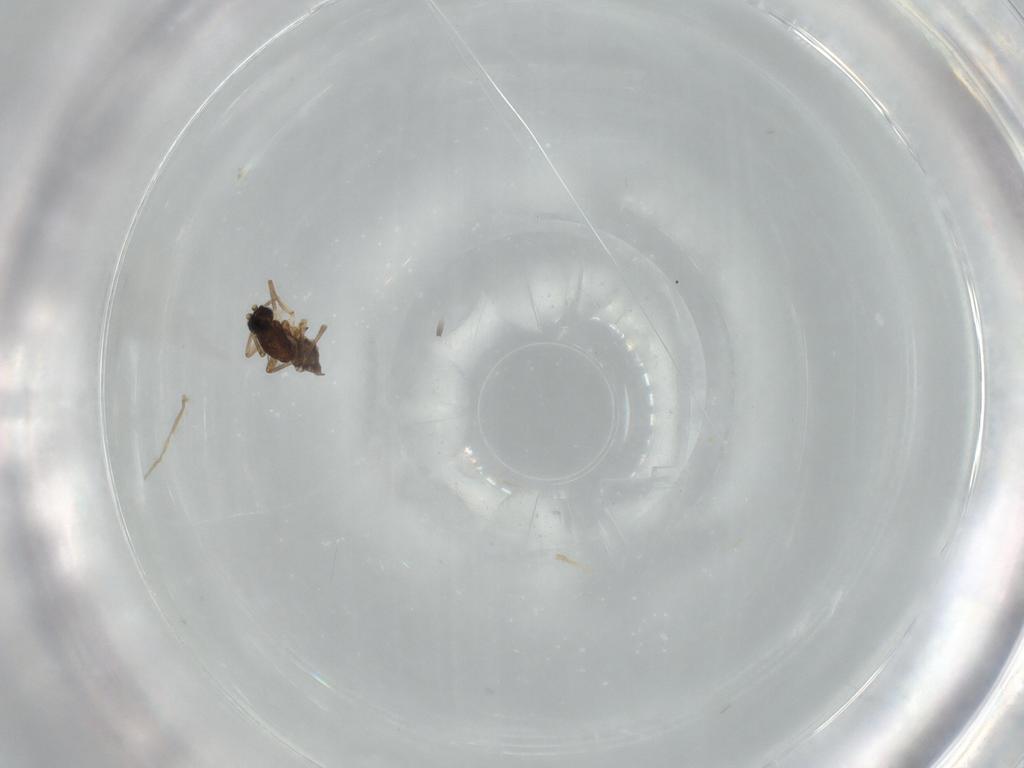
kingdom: Animalia
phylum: Arthropoda
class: Insecta
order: Diptera
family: Sciaridae
